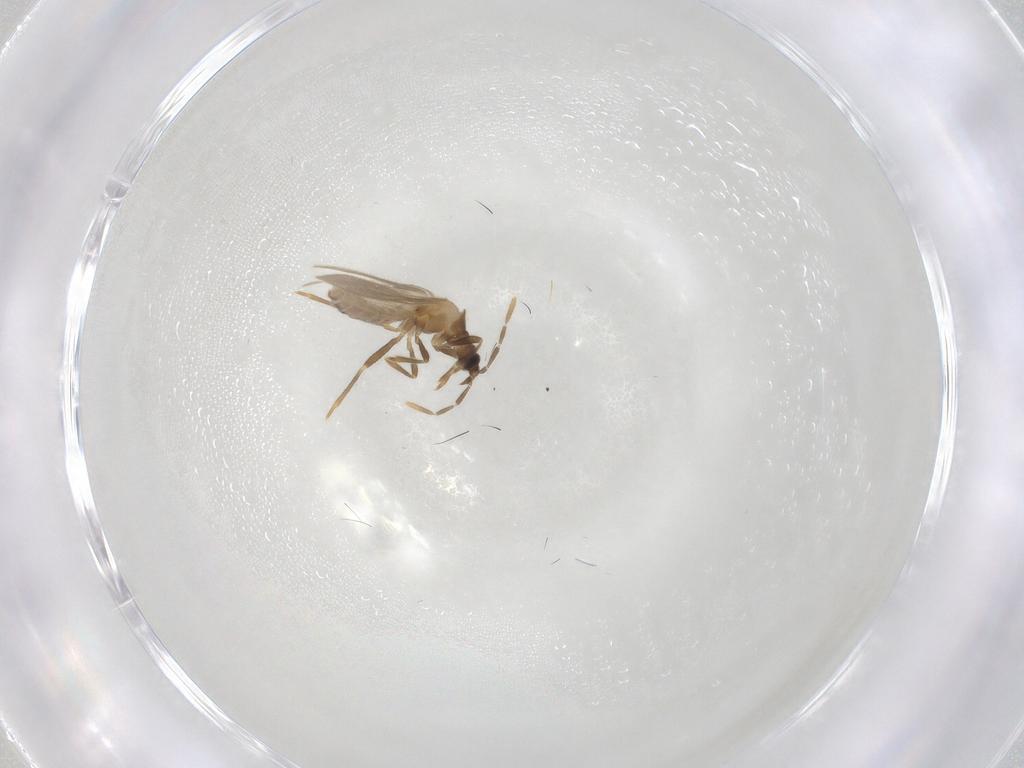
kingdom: Animalia
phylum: Arthropoda
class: Insecta
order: Hemiptera
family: Enicocephalidae
